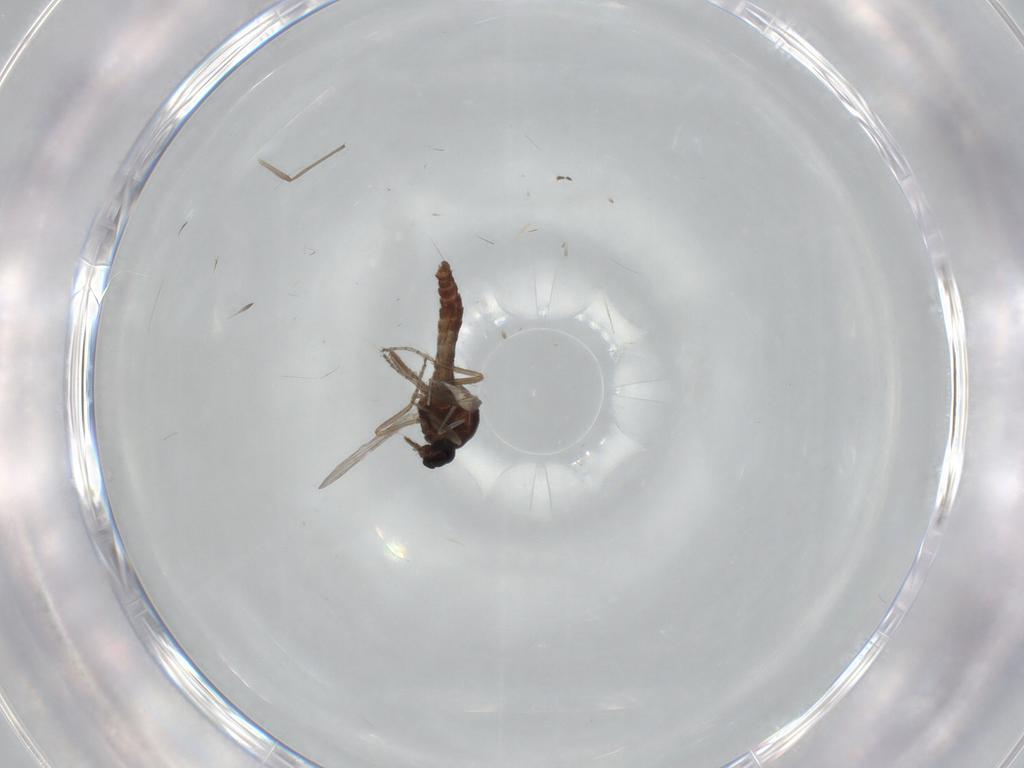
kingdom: Animalia
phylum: Arthropoda
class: Insecta
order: Diptera
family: Ceratopogonidae
